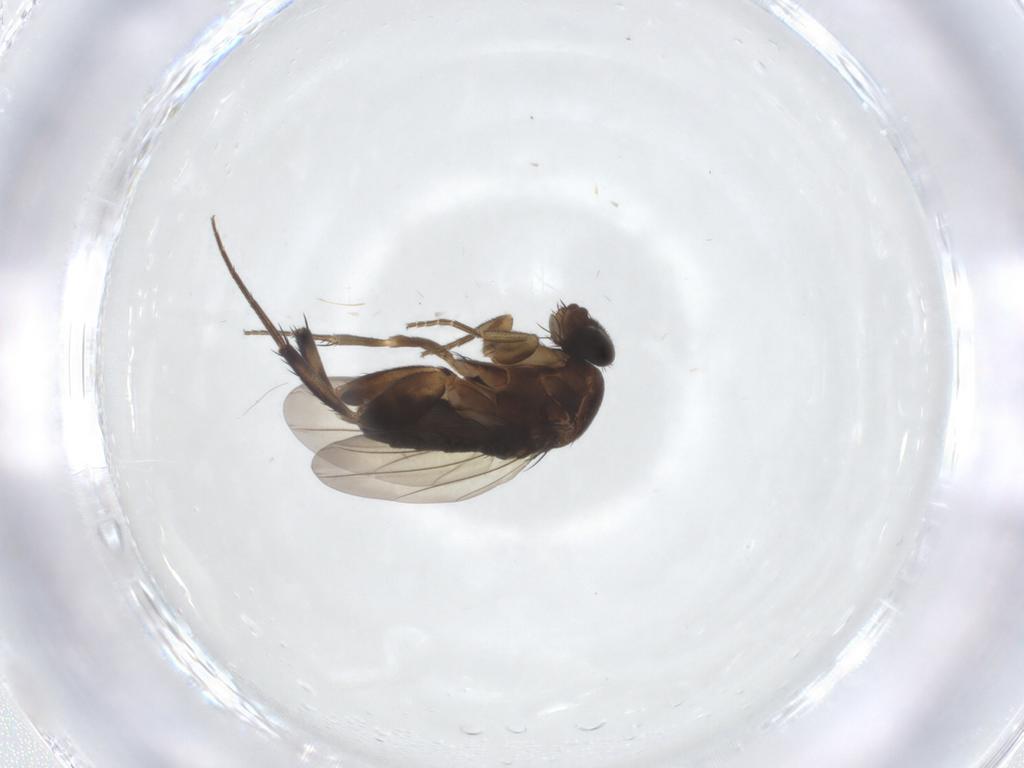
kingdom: Animalia
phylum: Arthropoda
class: Insecta
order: Diptera
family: Phoridae
